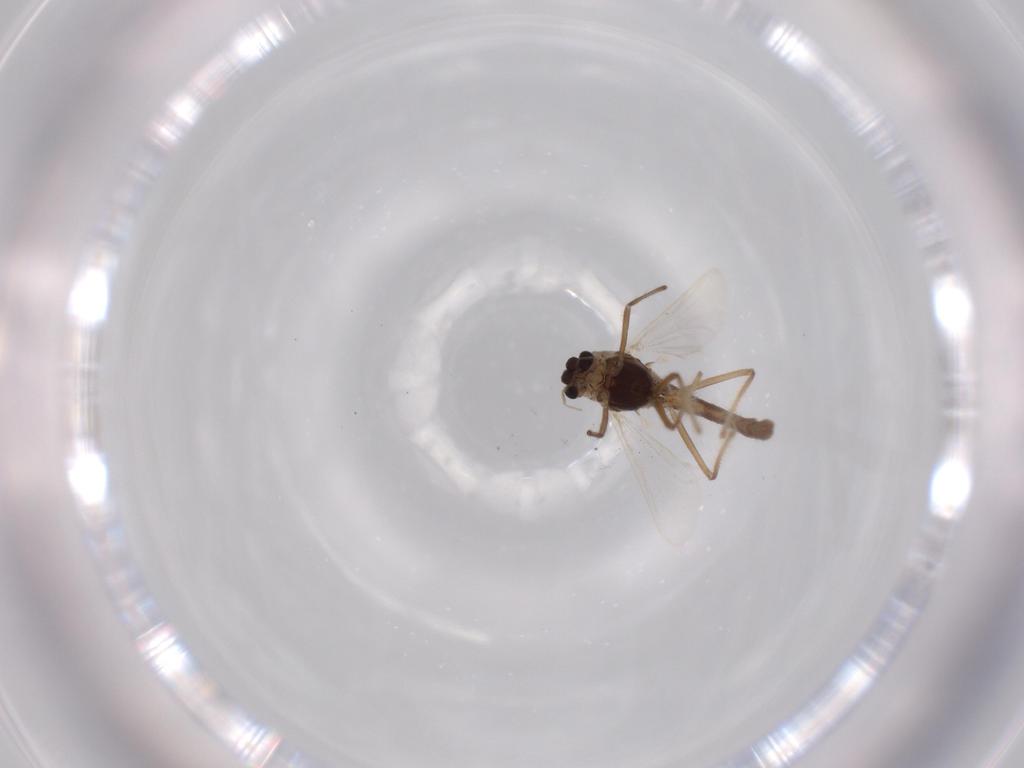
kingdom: Animalia
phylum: Arthropoda
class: Insecta
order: Diptera
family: Chironomidae
